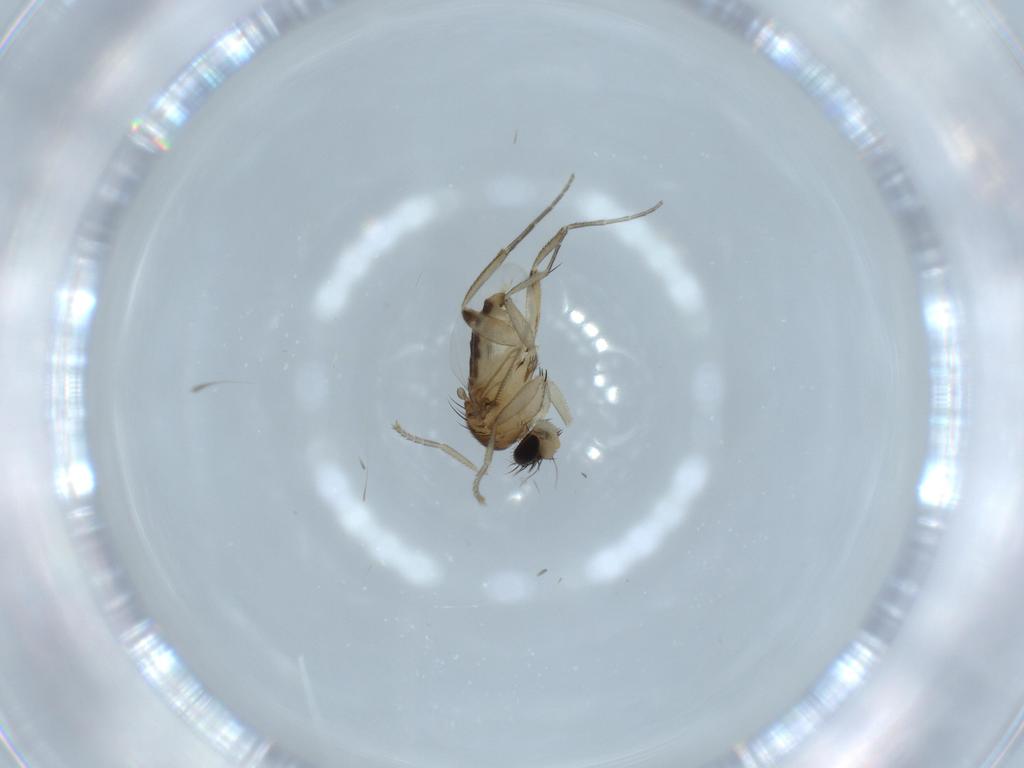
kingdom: Animalia
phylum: Arthropoda
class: Insecta
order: Diptera
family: Phoridae
